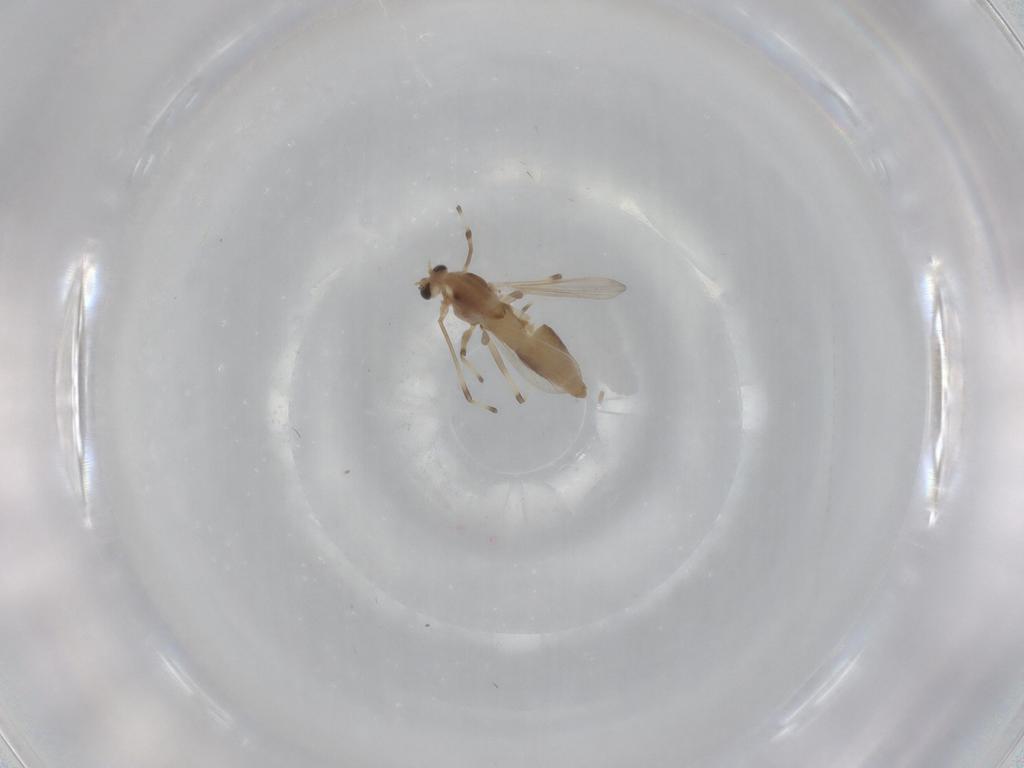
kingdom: Animalia
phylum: Arthropoda
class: Insecta
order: Diptera
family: Chironomidae
